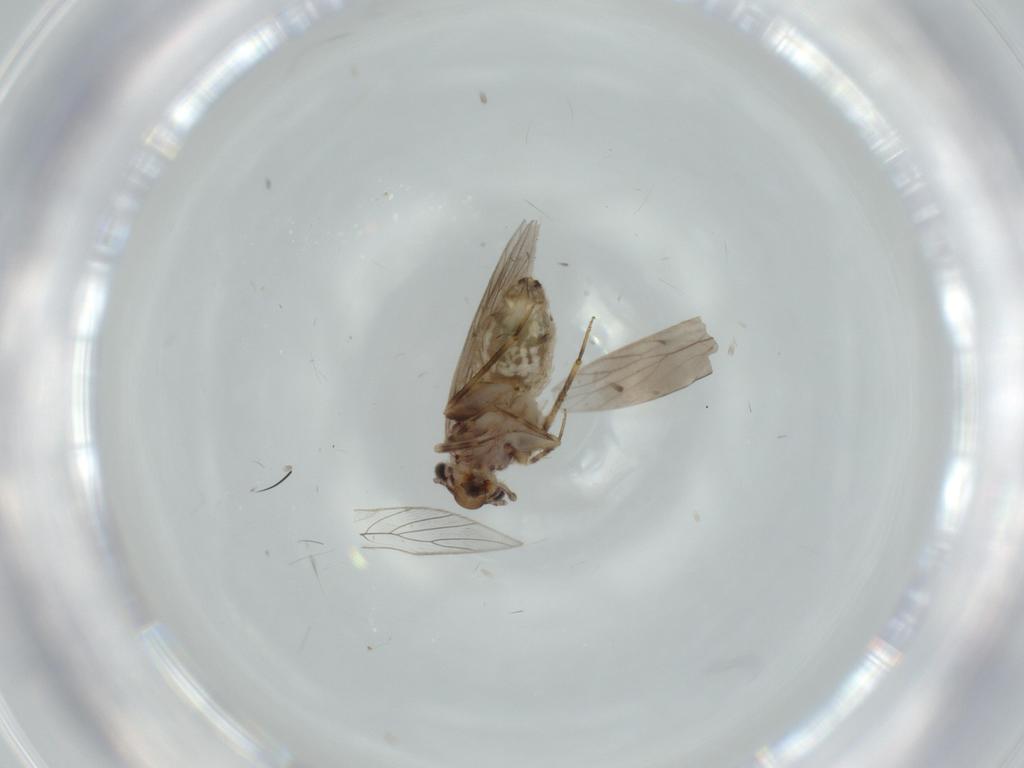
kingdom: Animalia
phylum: Arthropoda
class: Insecta
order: Psocodea
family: Lepidopsocidae
